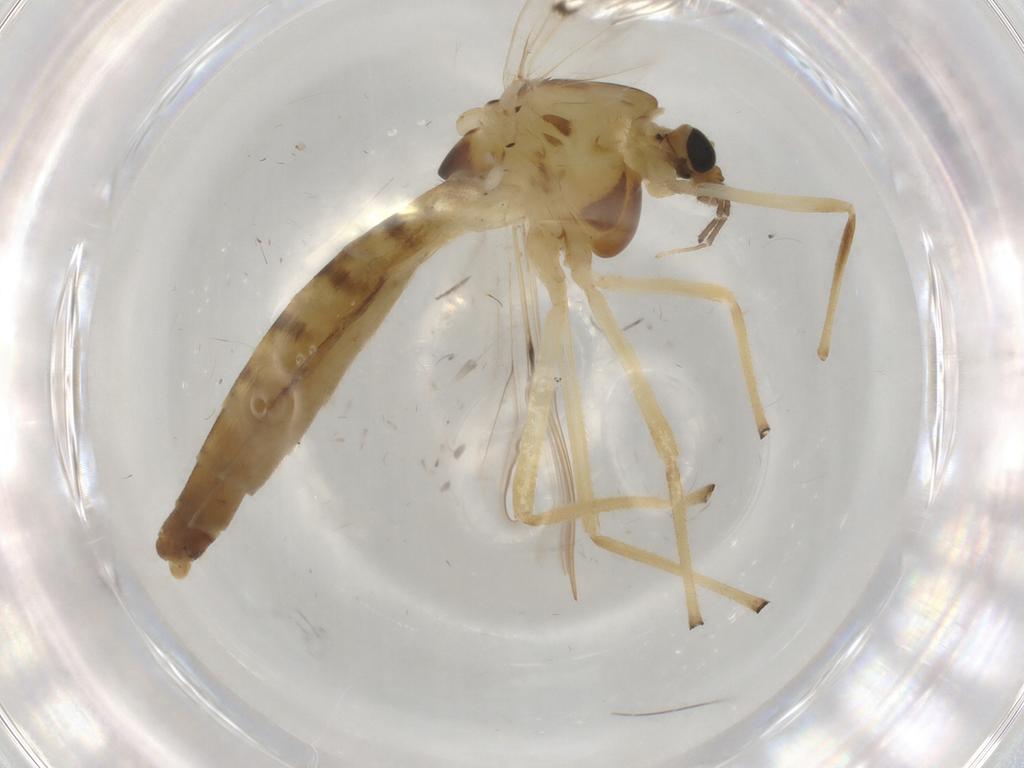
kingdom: Animalia
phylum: Arthropoda
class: Insecta
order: Diptera
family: Chironomidae
